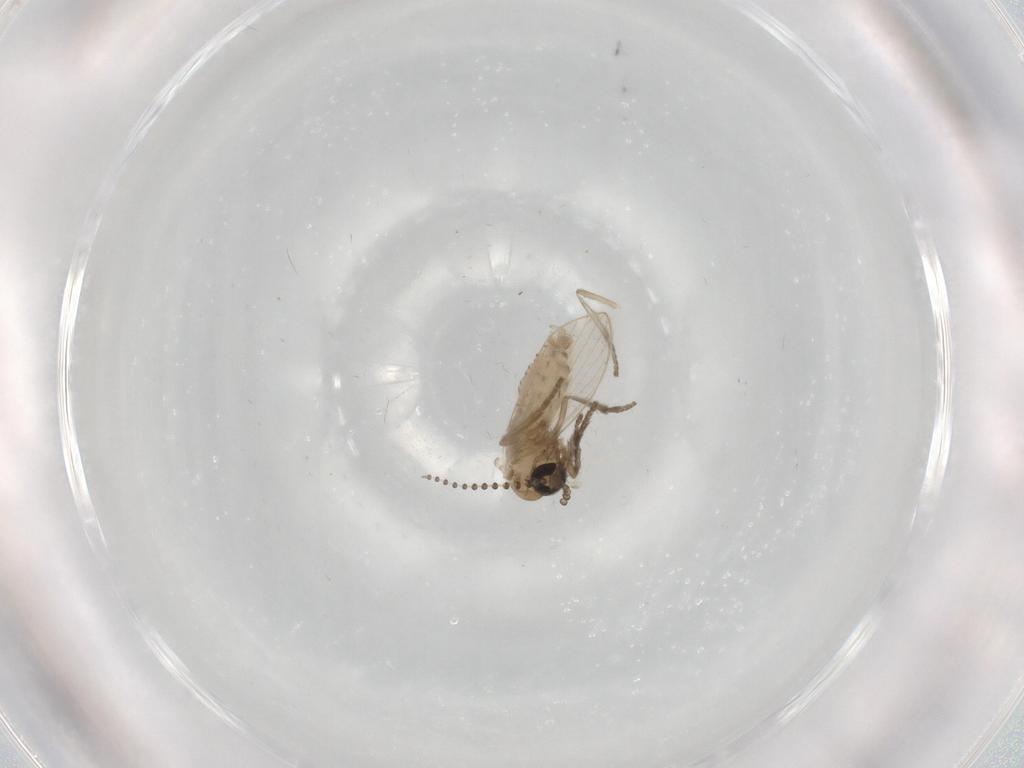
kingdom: Animalia
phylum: Arthropoda
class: Insecta
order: Diptera
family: Psychodidae
